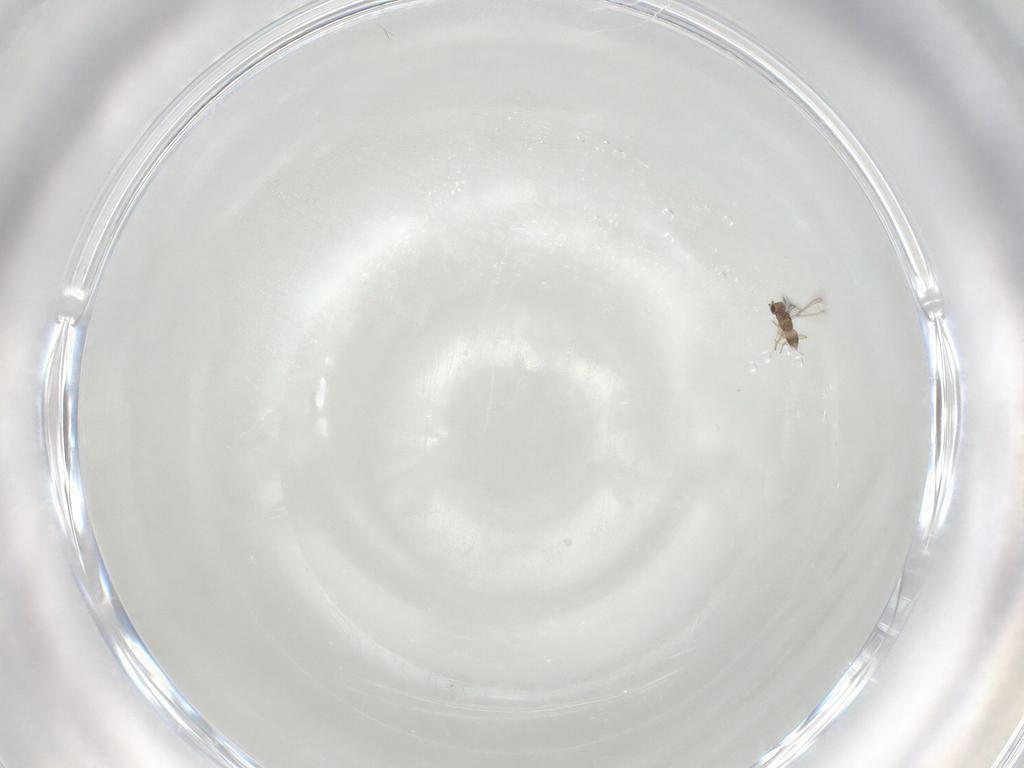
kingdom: Animalia
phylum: Arthropoda
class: Insecta
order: Hymenoptera
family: Mymaridae
